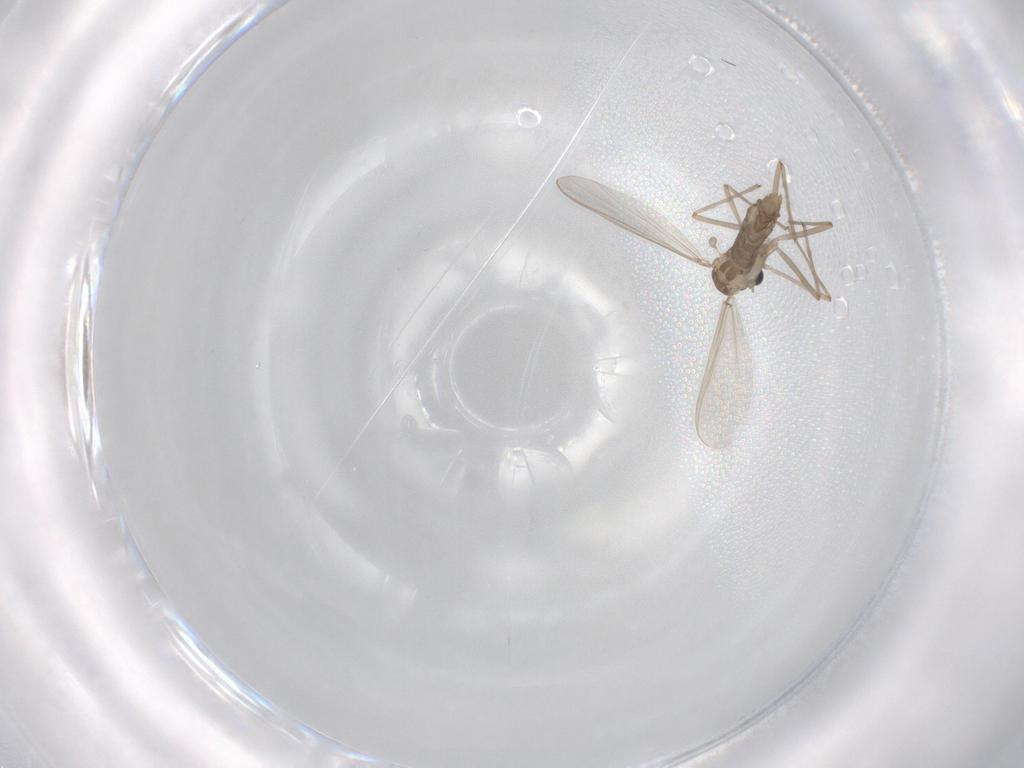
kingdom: Animalia
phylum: Arthropoda
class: Insecta
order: Diptera
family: Chironomidae
